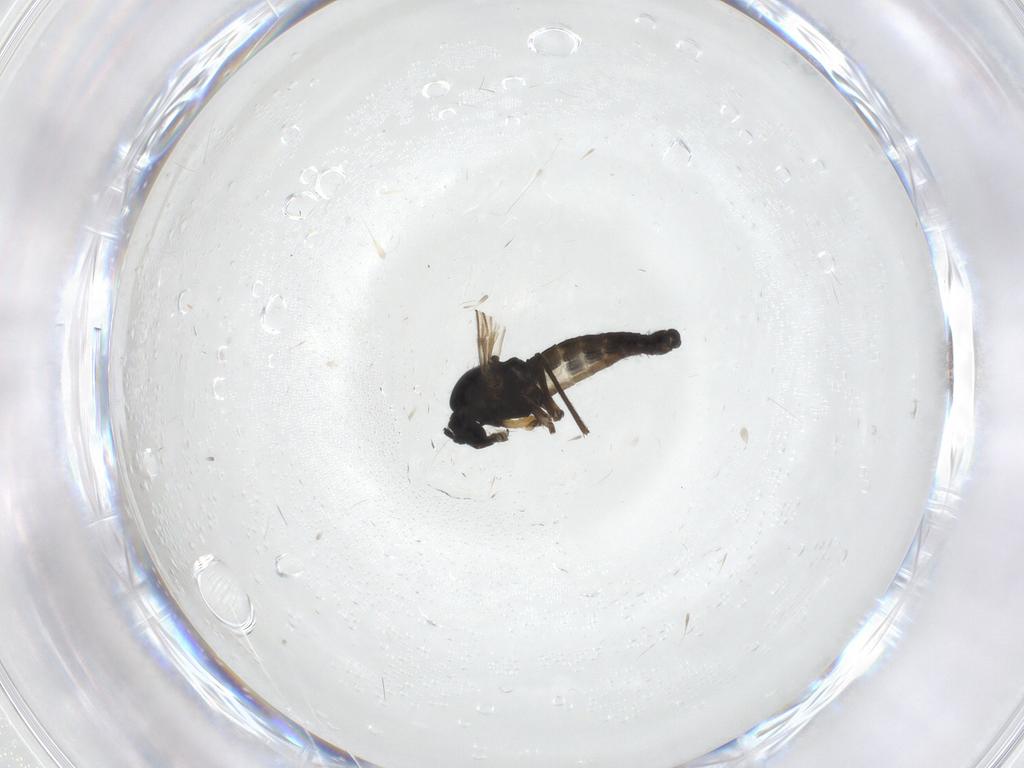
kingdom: Animalia
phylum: Arthropoda
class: Insecta
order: Diptera
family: Sciaridae
